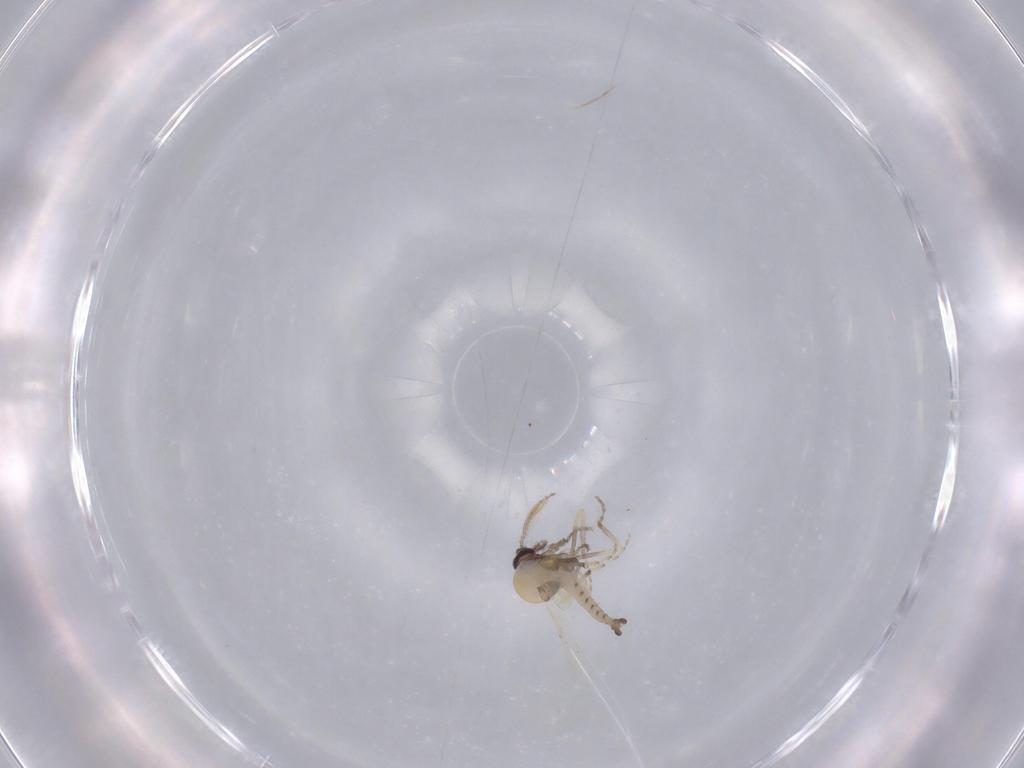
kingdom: Animalia
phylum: Arthropoda
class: Insecta
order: Diptera
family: Ceratopogonidae
